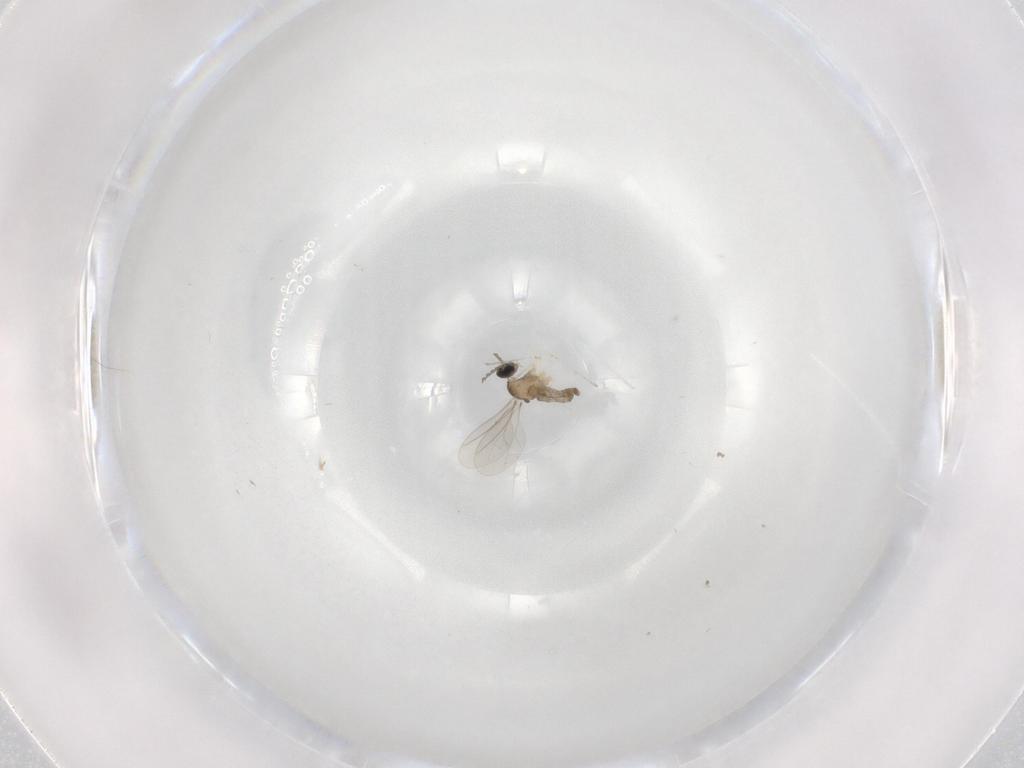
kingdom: Animalia
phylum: Arthropoda
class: Insecta
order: Diptera
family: Cecidomyiidae
